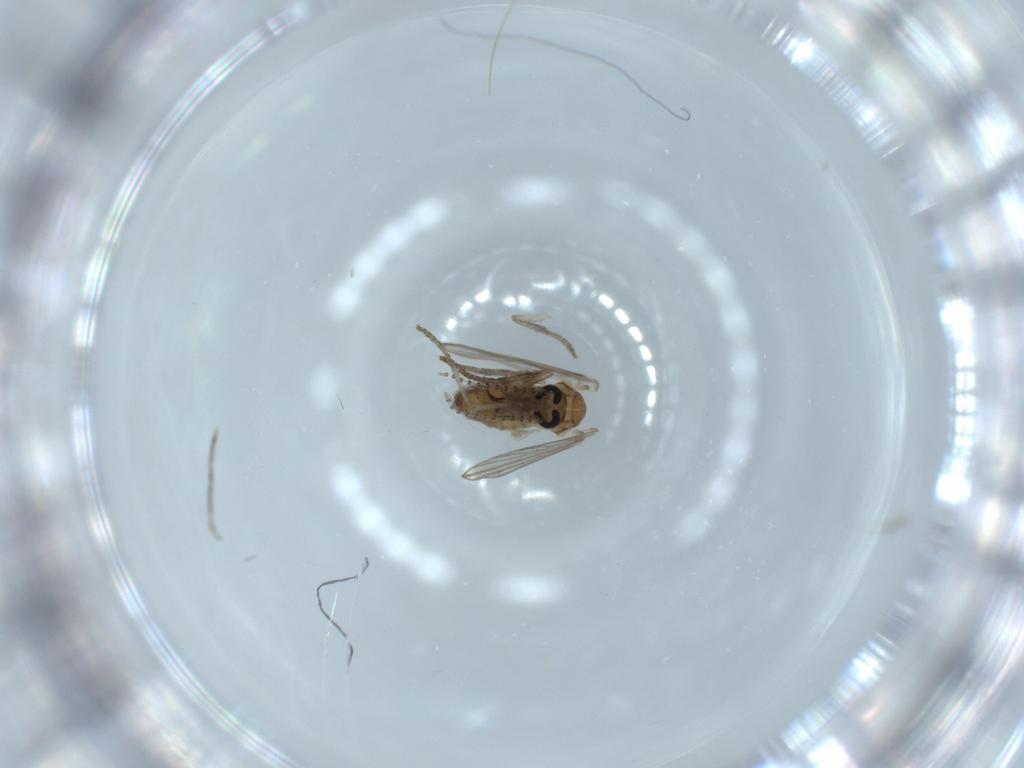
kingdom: Animalia
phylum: Arthropoda
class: Insecta
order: Diptera
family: Psychodidae
